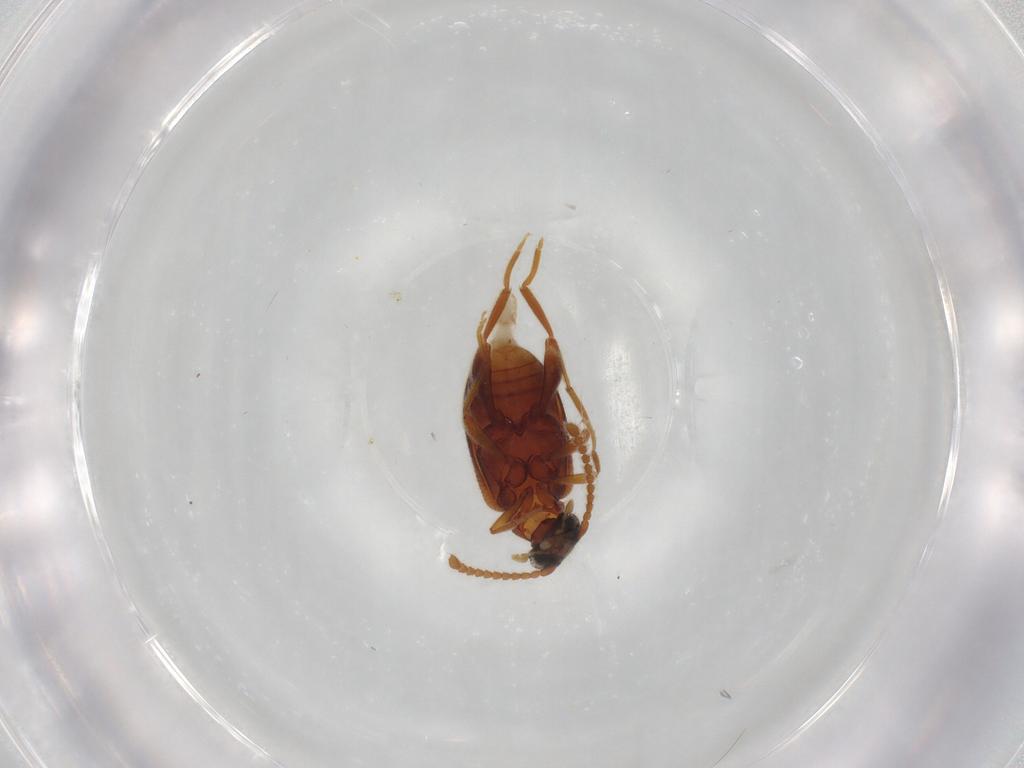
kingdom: Animalia
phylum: Arthropoda
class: Insecta
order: Coleoptera
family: Aderidae
